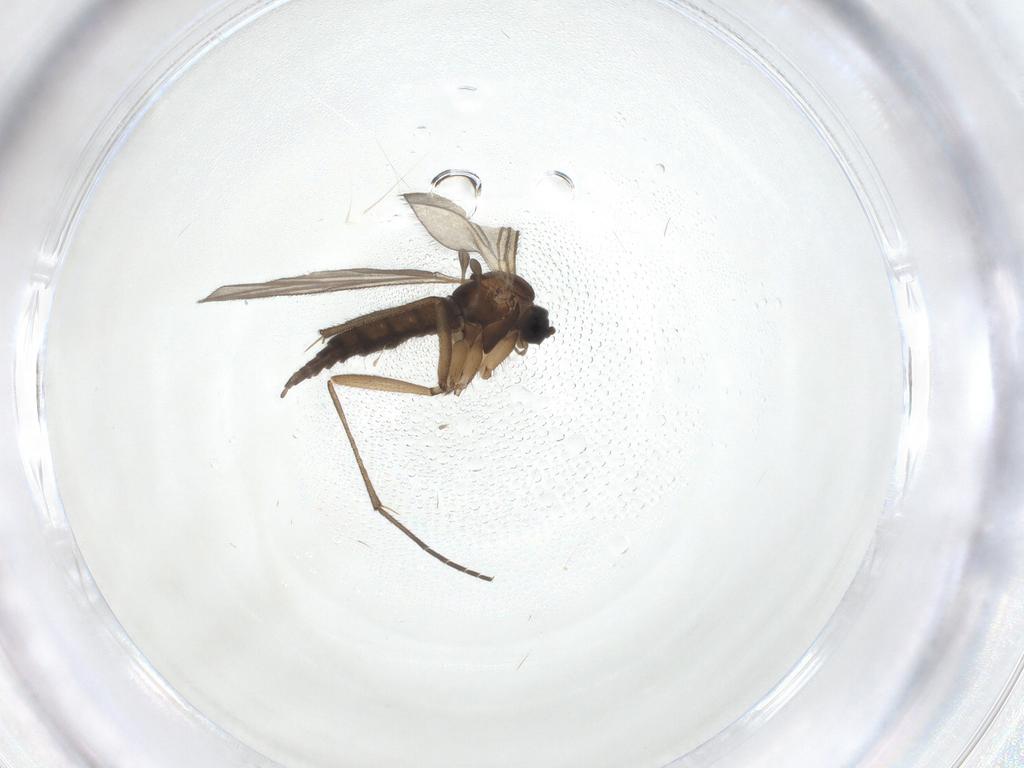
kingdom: Animalia
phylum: Arthropoda
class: Insecta
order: Diptera
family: Sciaridae
